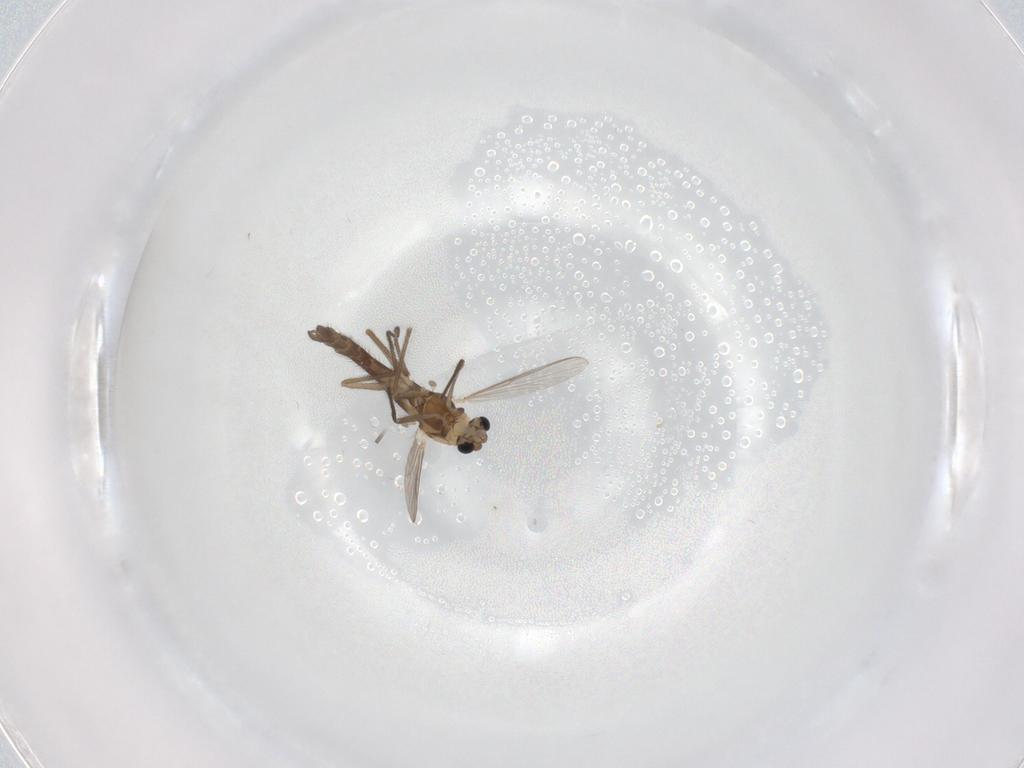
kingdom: Animalia
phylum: Arthropoda
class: Insecta
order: Diptera
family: Chironomidae
